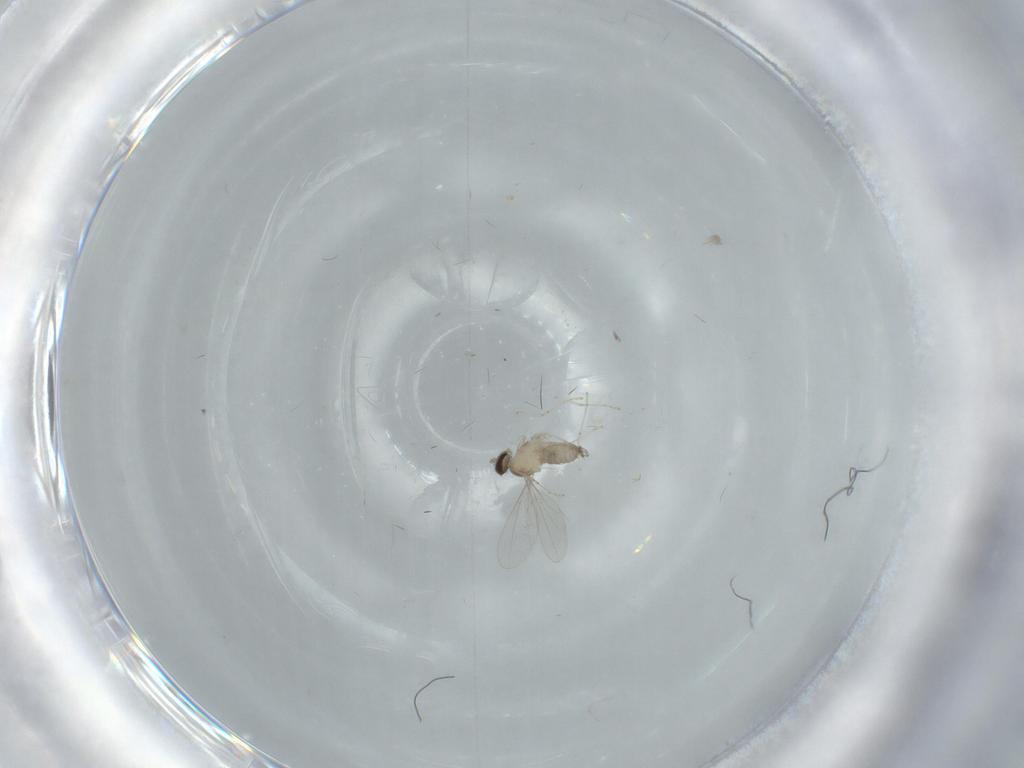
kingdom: Animalia
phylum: Arthropoda
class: Insecta
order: Diptera
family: Cecidomyiidae
